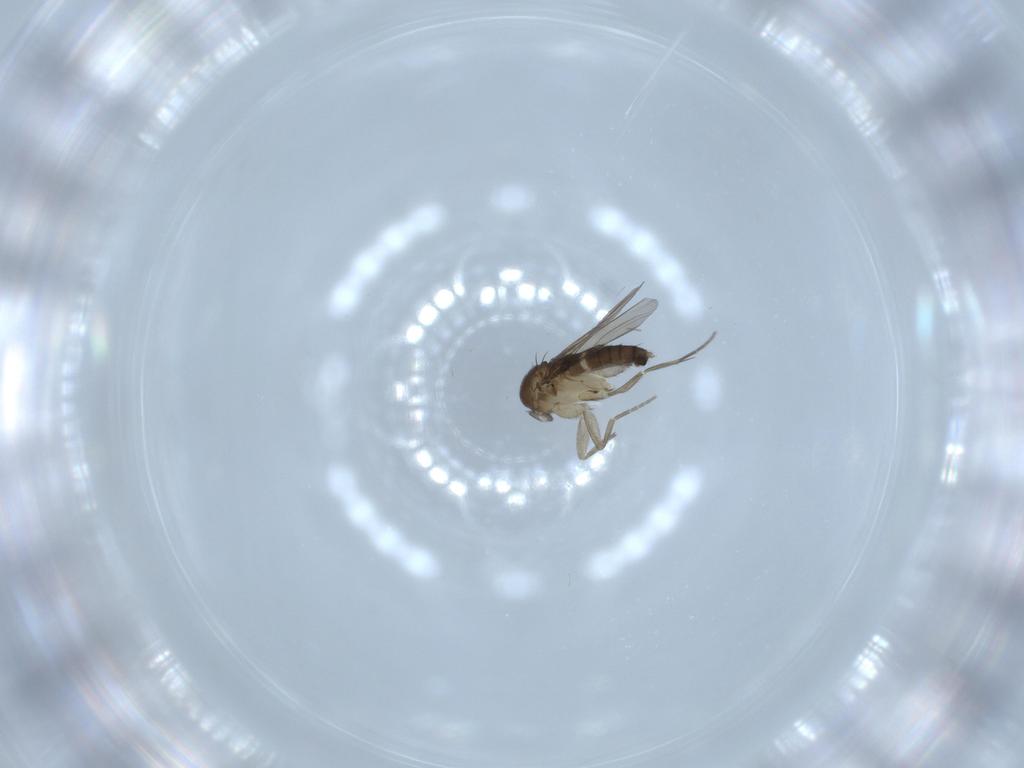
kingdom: Animalia
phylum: Arthropoda
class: Insecta
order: Diptera
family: Phoridae
